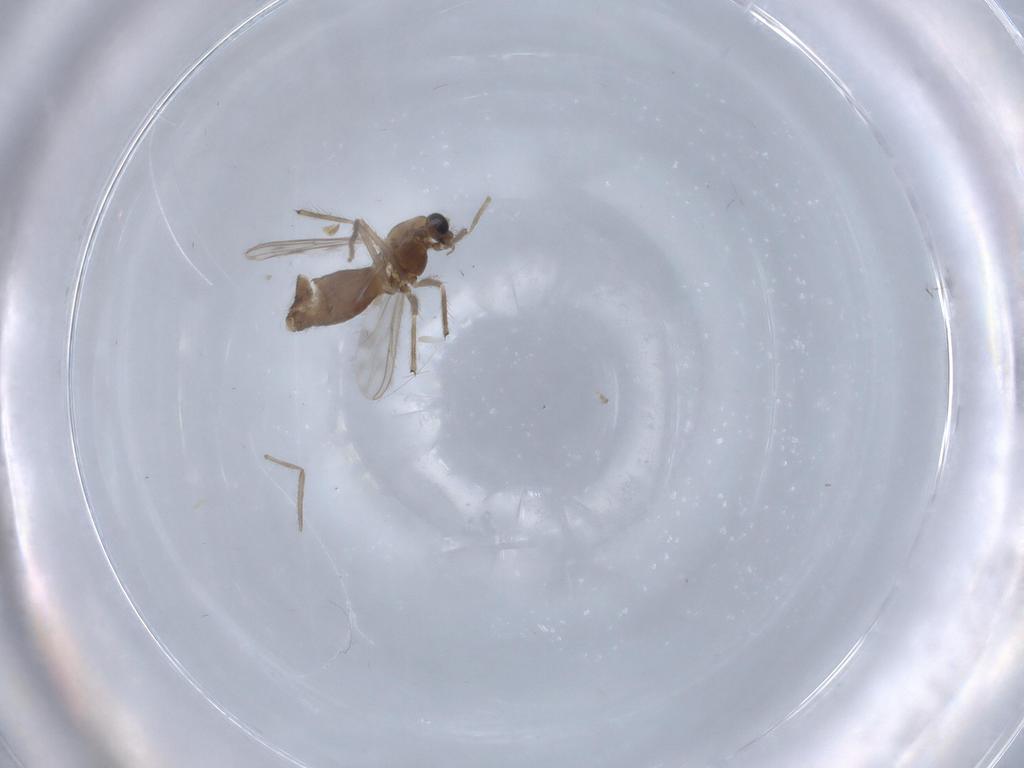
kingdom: Animalia
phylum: Arthropoda
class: Insecta
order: Diptera
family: Chironomidae
